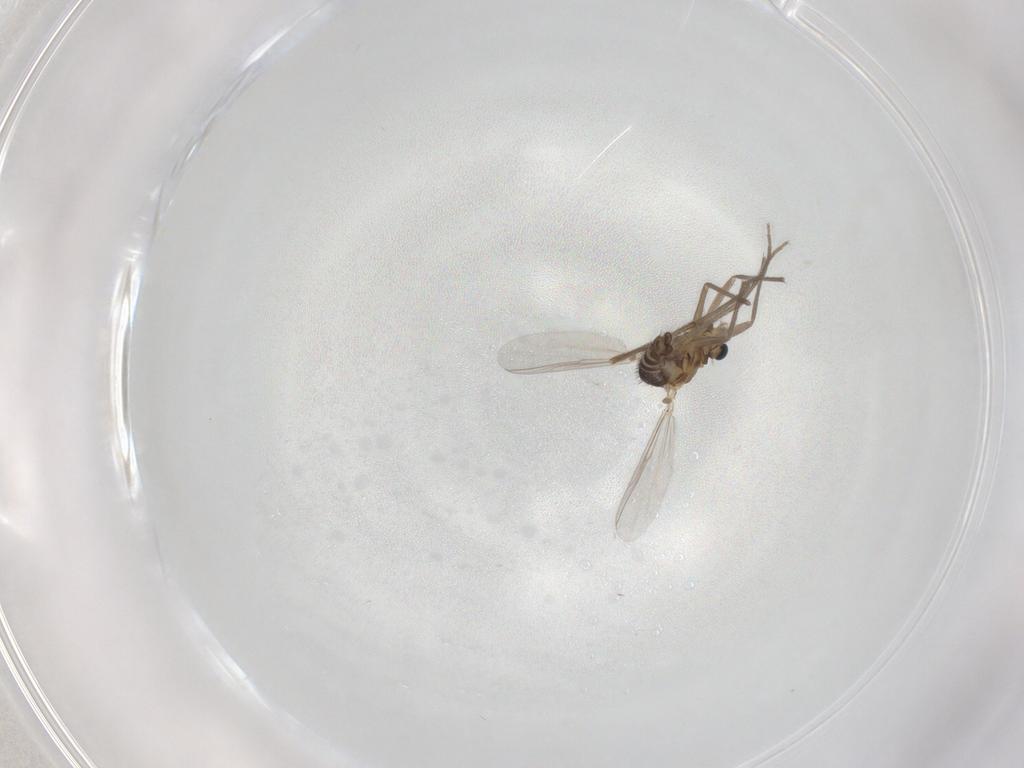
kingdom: Animalia
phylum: Arthropoda
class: Insecta
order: Diptera
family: Chironomidae
